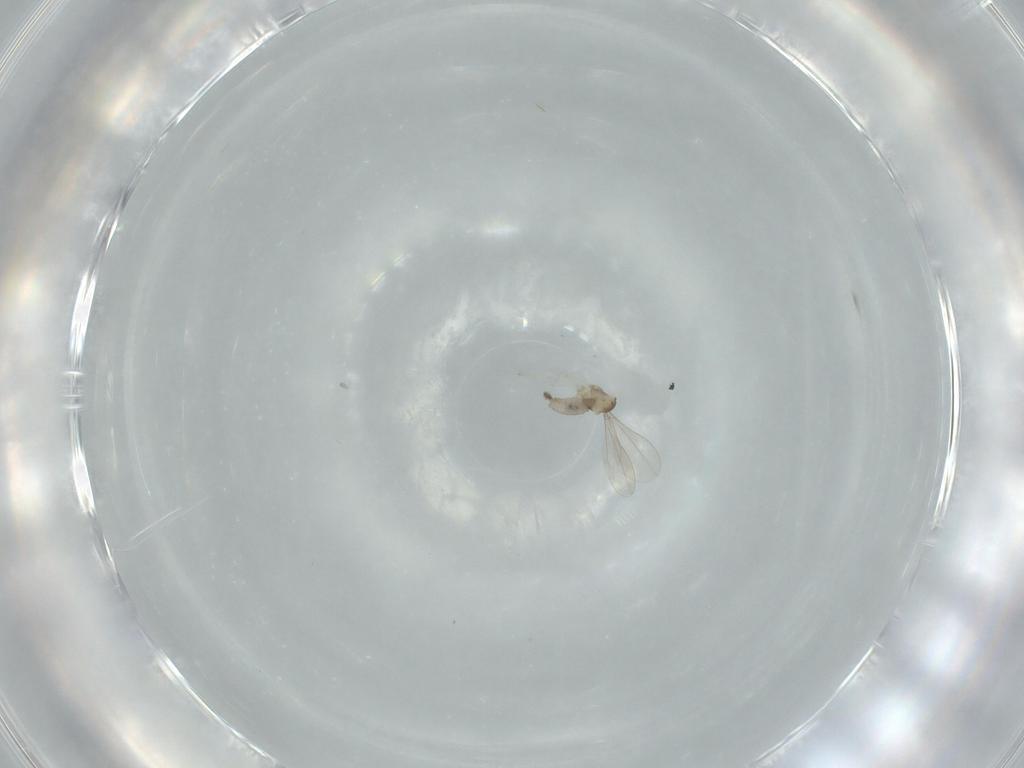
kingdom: Animalia
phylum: Arthropoda
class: Insecta
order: Diptera
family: Cecidomyiidae
